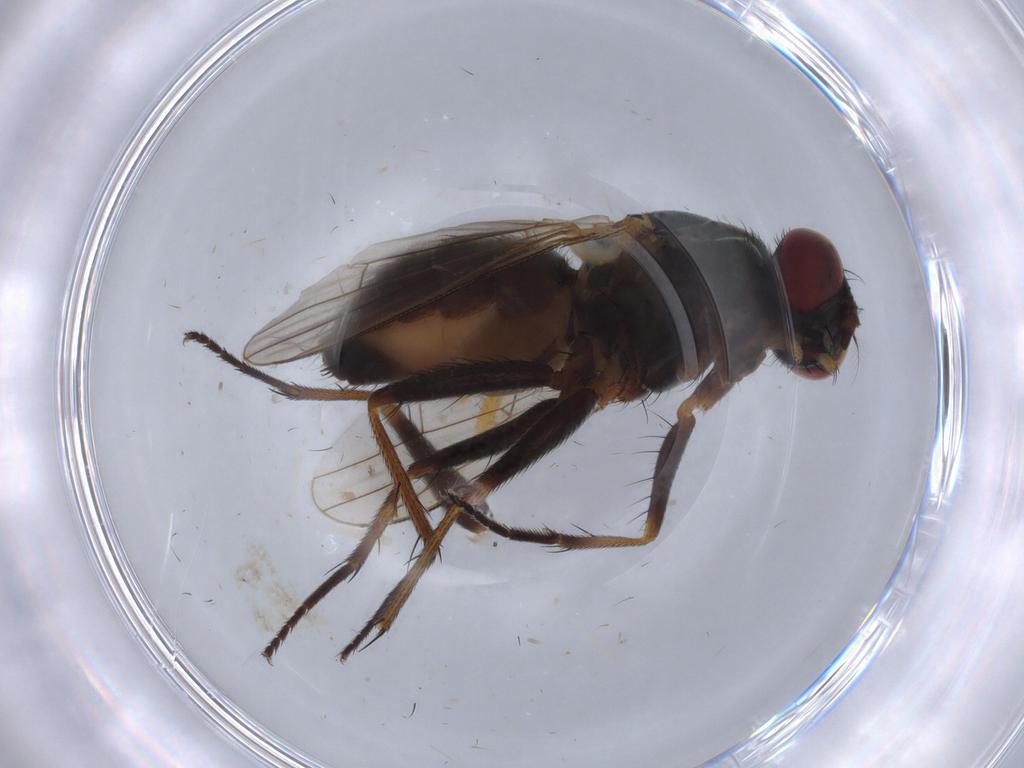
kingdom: Animalia
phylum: Arthropoda
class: Insecta
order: Diptera
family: Muscidae
